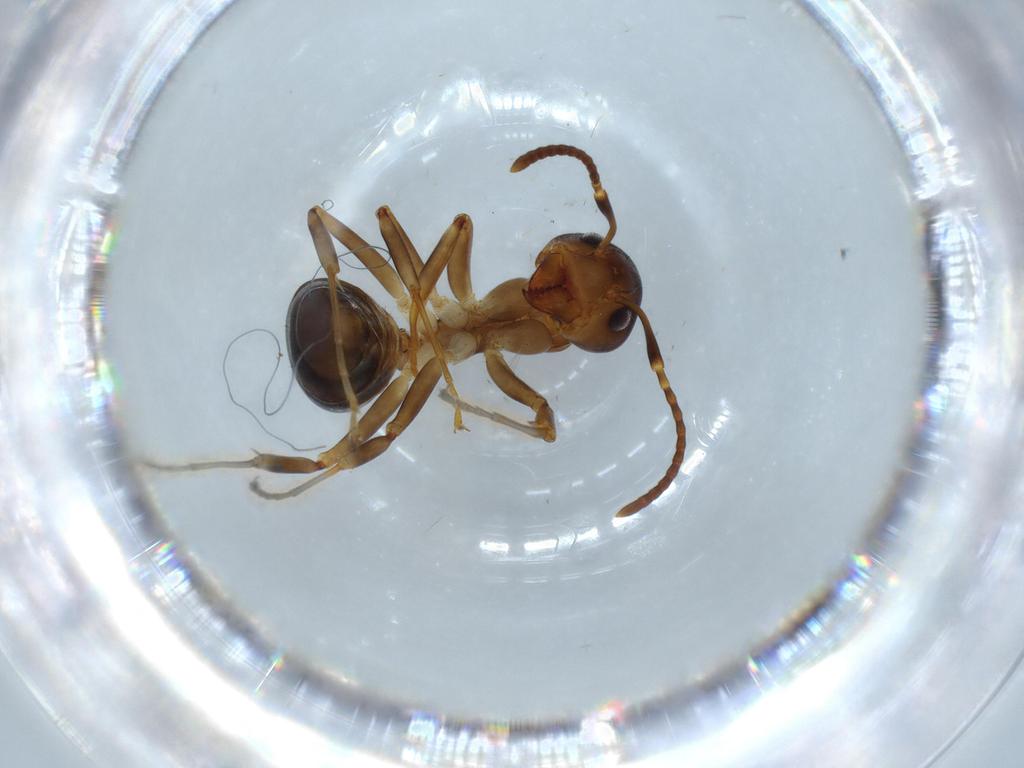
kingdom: Animalia
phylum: Arthropoda
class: Insecta
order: Hymenoptera
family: Formicidae
